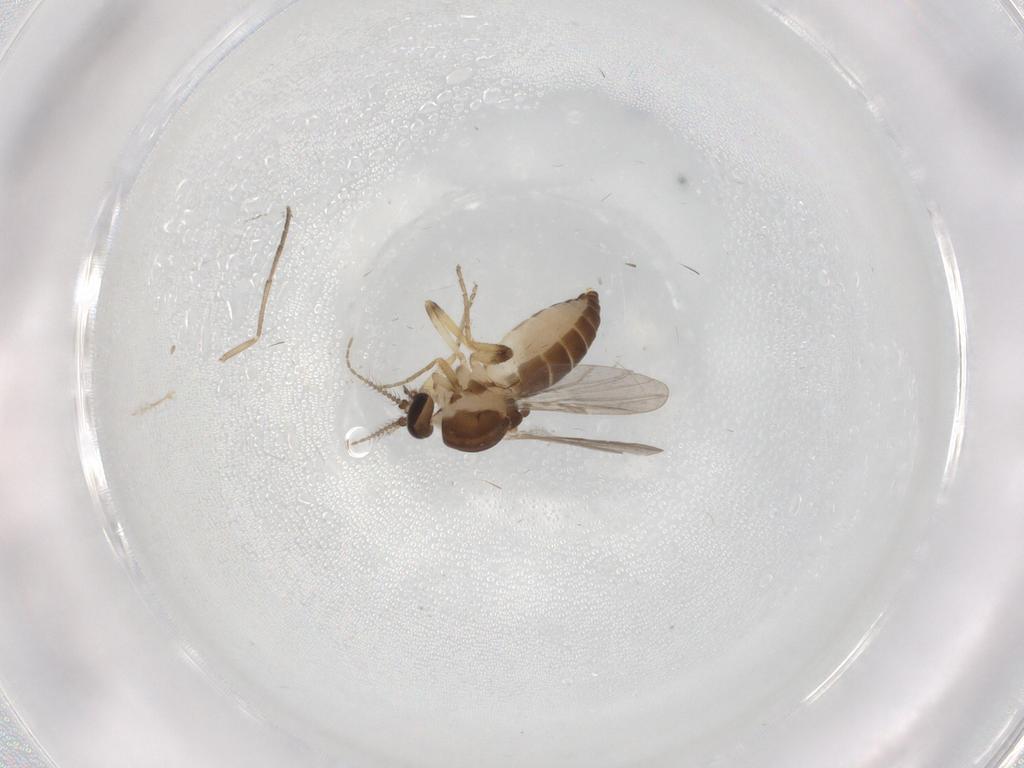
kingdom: Animalia
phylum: Arthropoda
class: Insecta
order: Diptera
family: Ceratopogonidae
